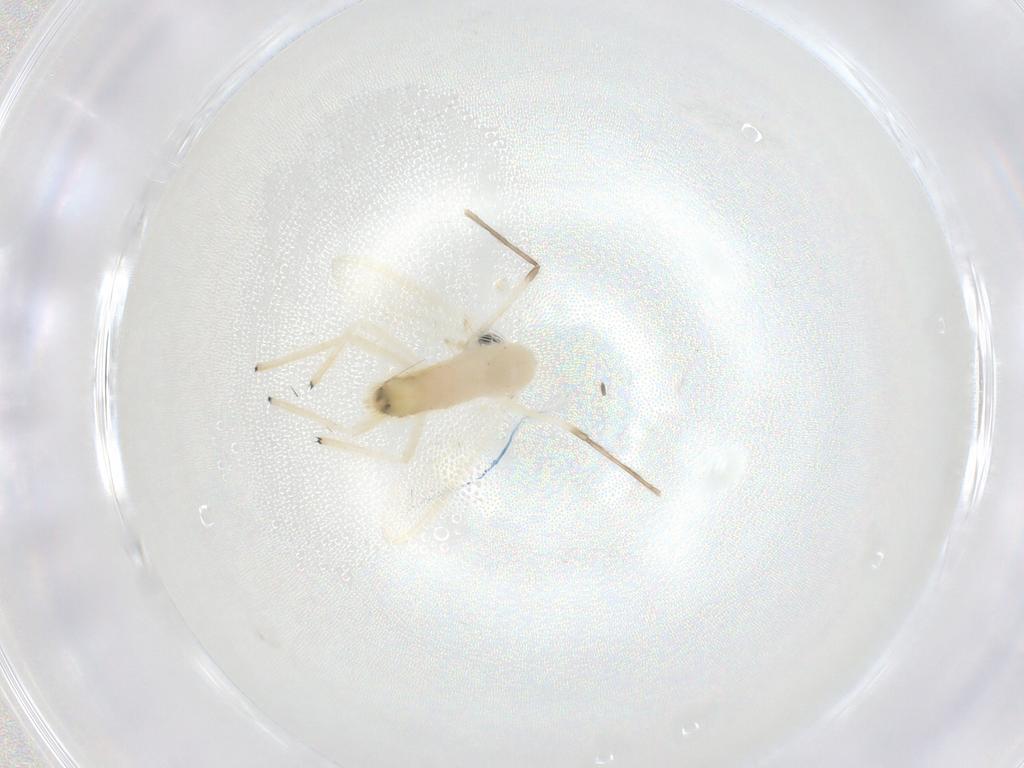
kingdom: Animalia
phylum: Arthropoda
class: Insecta
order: Diptera
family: Chironomidae
